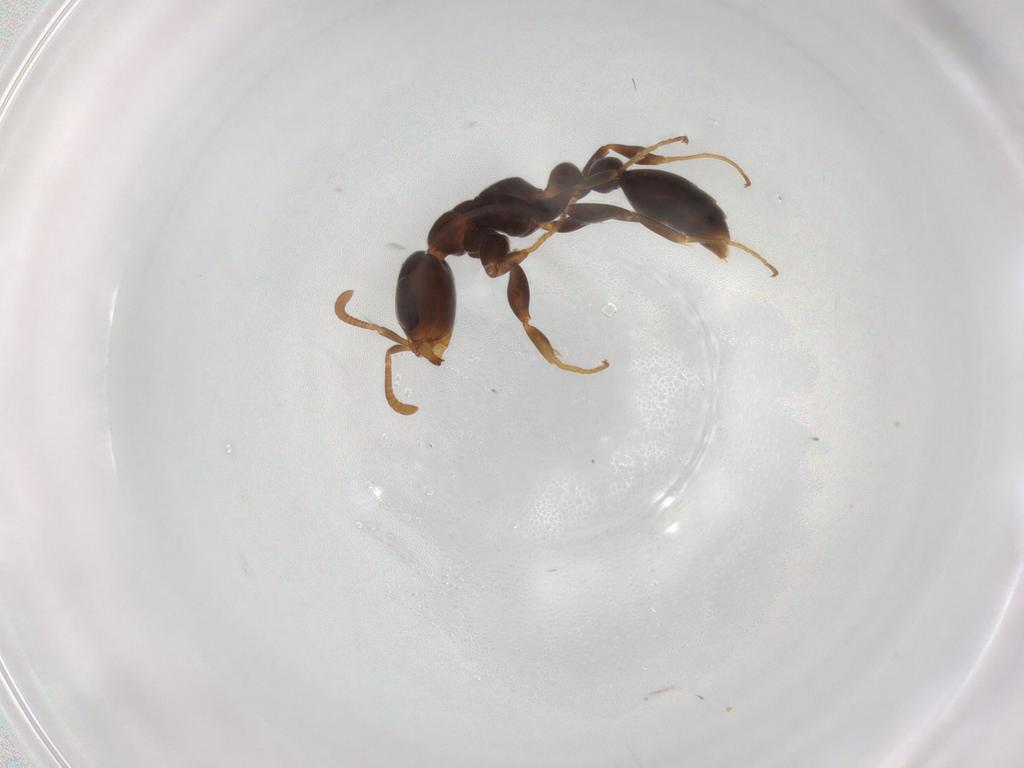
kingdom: Animalia
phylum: Arthropoda
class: Insecta
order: Hymenoptera
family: Formicidae
